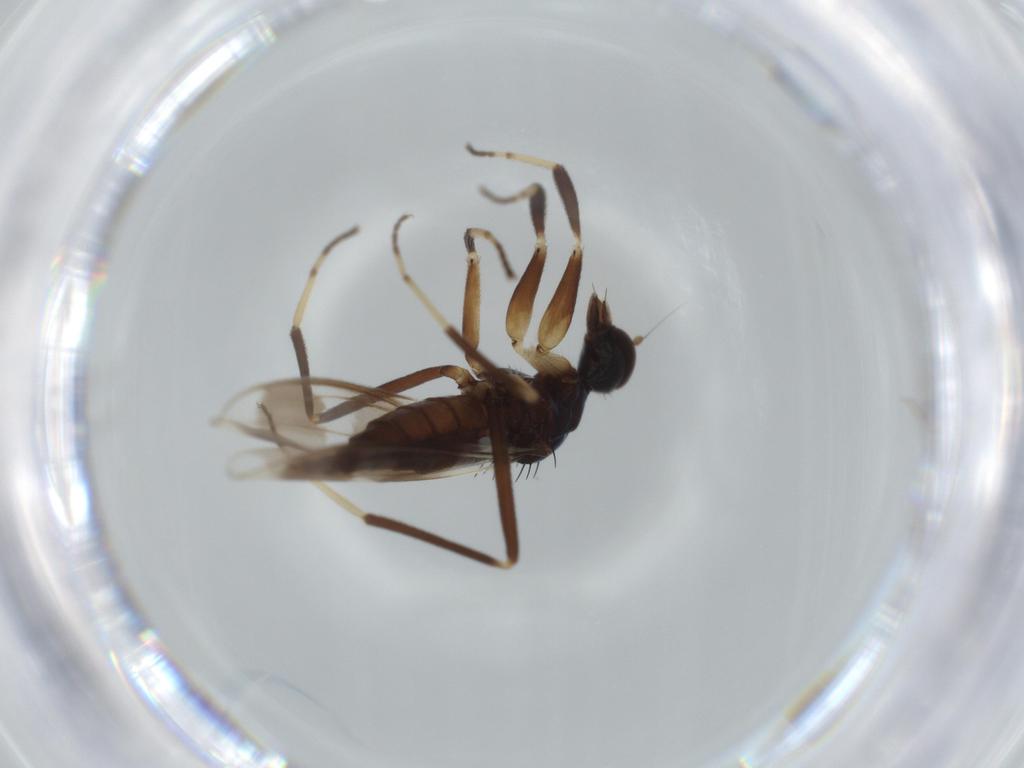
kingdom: Animalia
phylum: Arthropoda
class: Insecta
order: Diptera
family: Hybotidae
